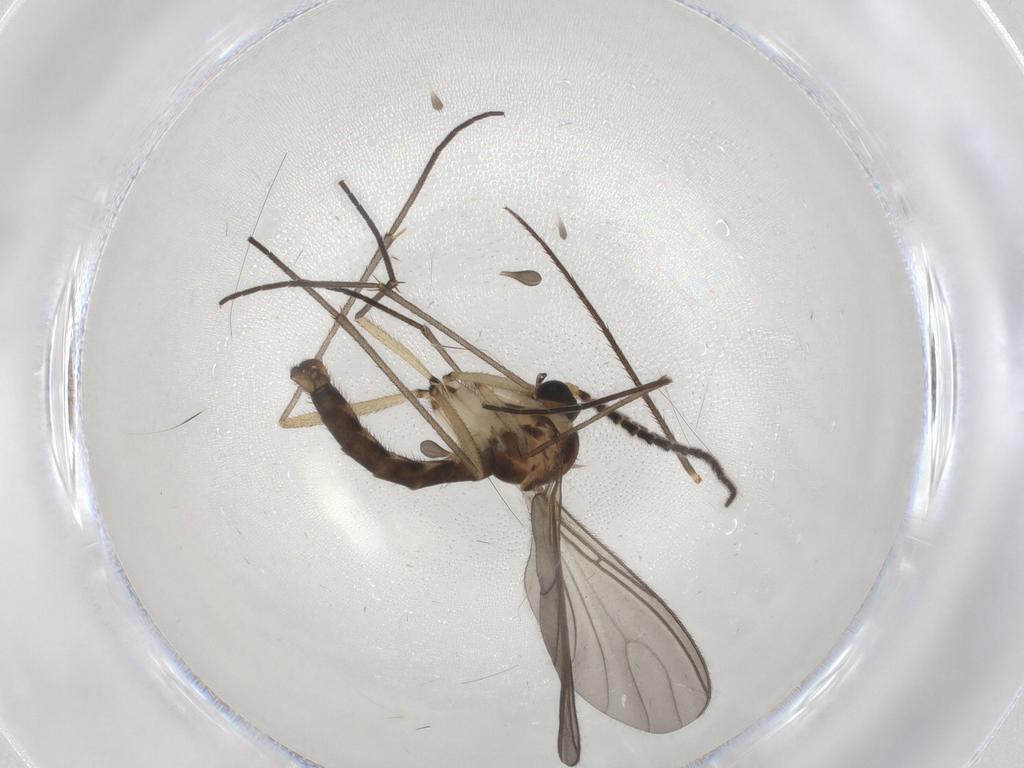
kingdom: Animalia
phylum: Arthropoda
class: Insecta
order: Diptera
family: Sciaridae
